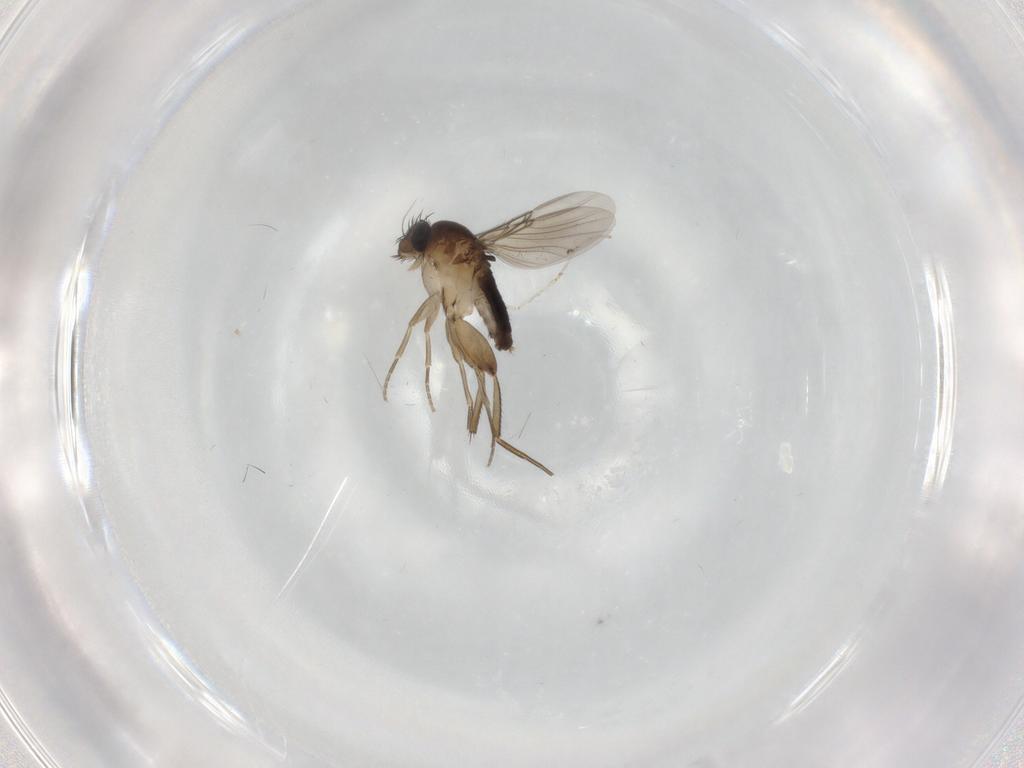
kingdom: Animalia
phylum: Arthropoda
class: Insecta
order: Diptera
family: Phoridae
